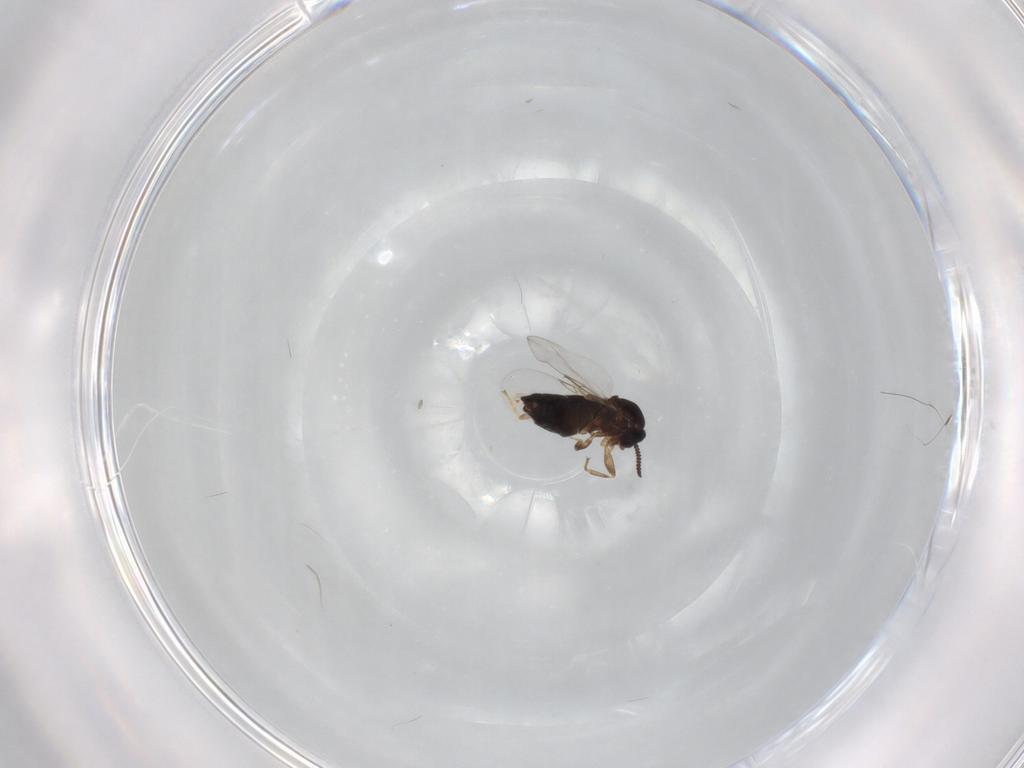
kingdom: Animalia
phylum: Arthropoda
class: Insecta
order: Diptera
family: Scatopsidae
